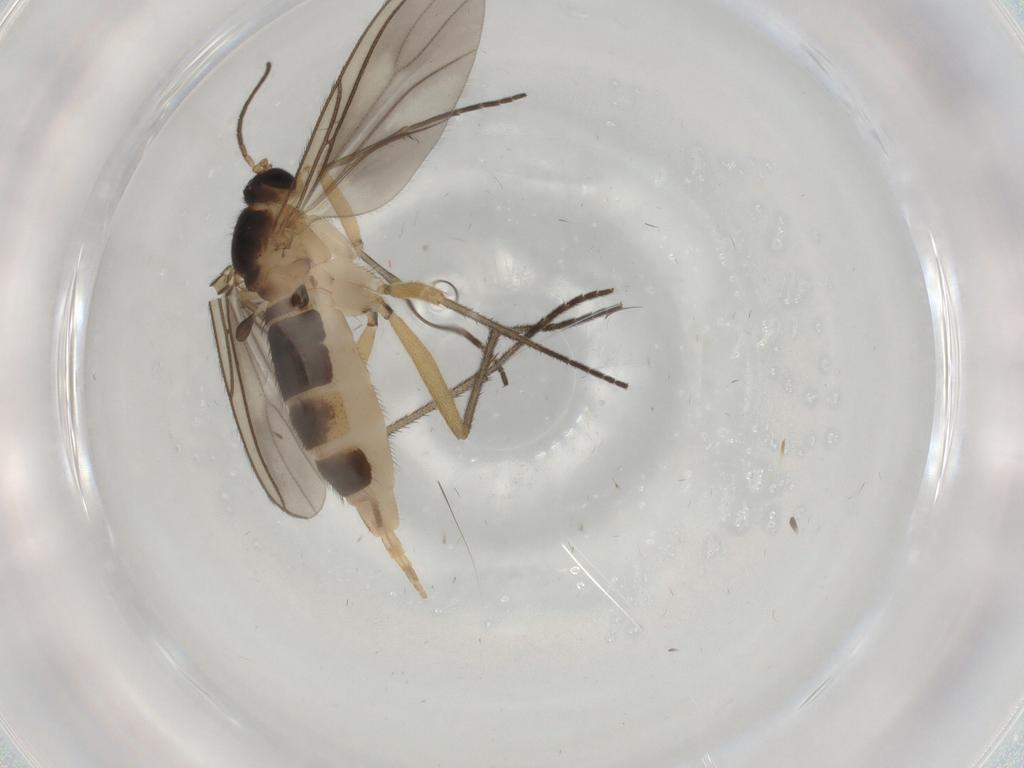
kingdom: Animalia
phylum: Arthropoda
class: Insecta
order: Diptera
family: Sciaridae
